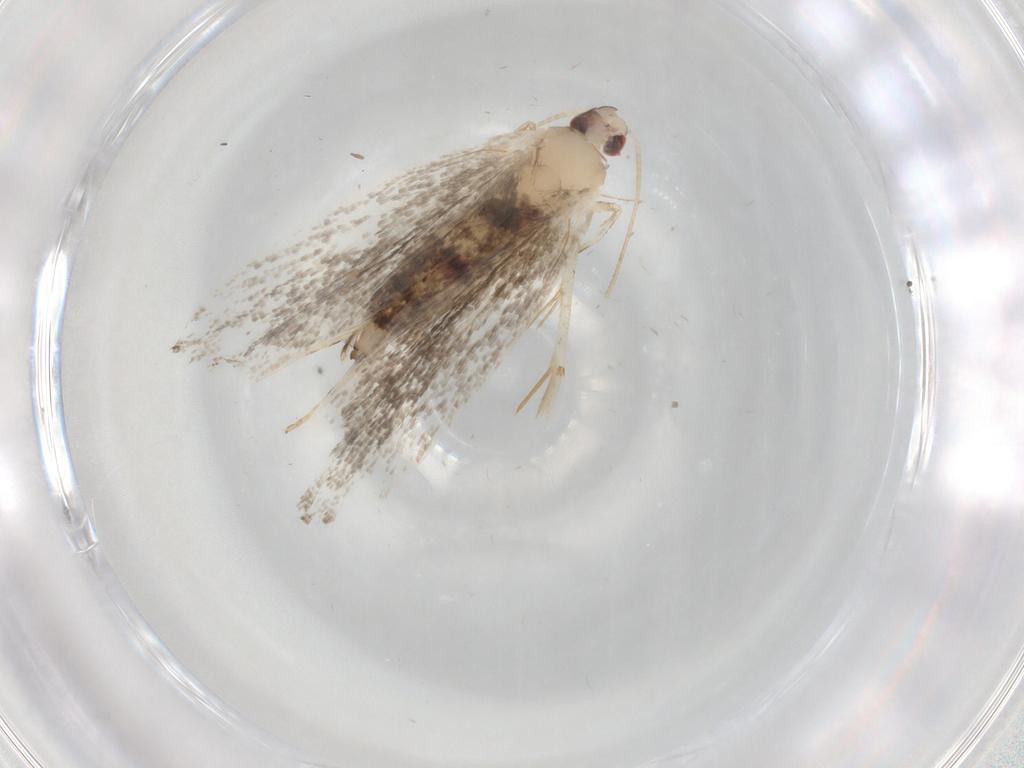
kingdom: Animalia
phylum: Arthropoda
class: Insecta
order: Lepidoptera
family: Gelechiidae
